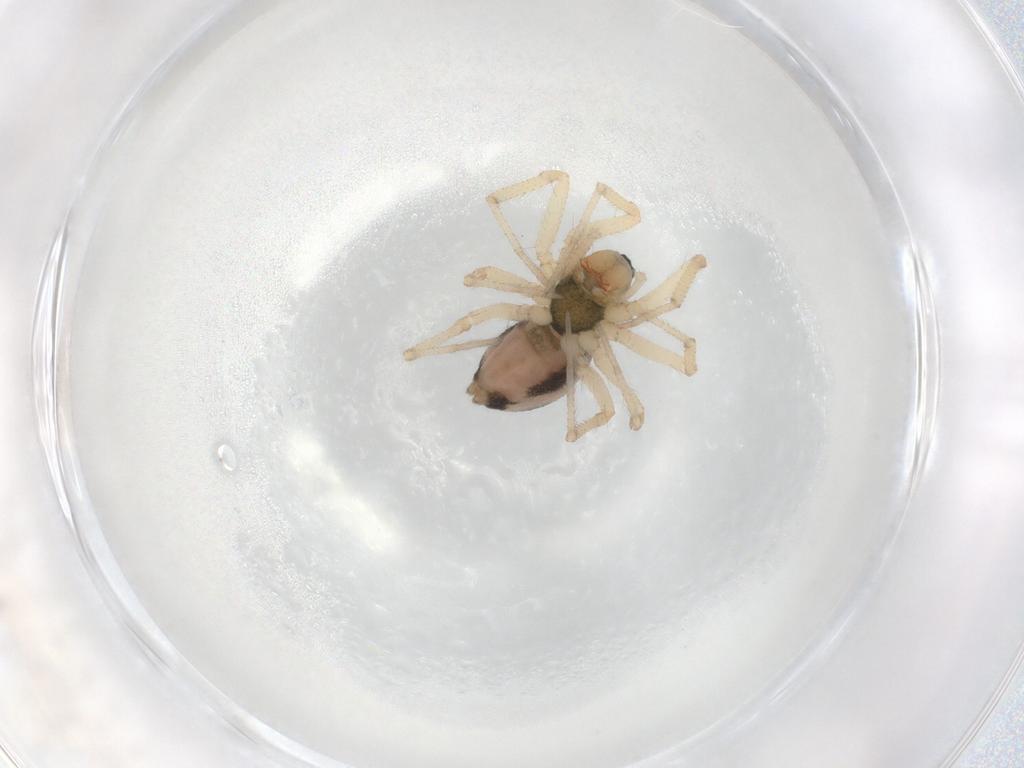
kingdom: Animalia
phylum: Arthropoda
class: Arachnida
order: Araneae
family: Linyphiidae
